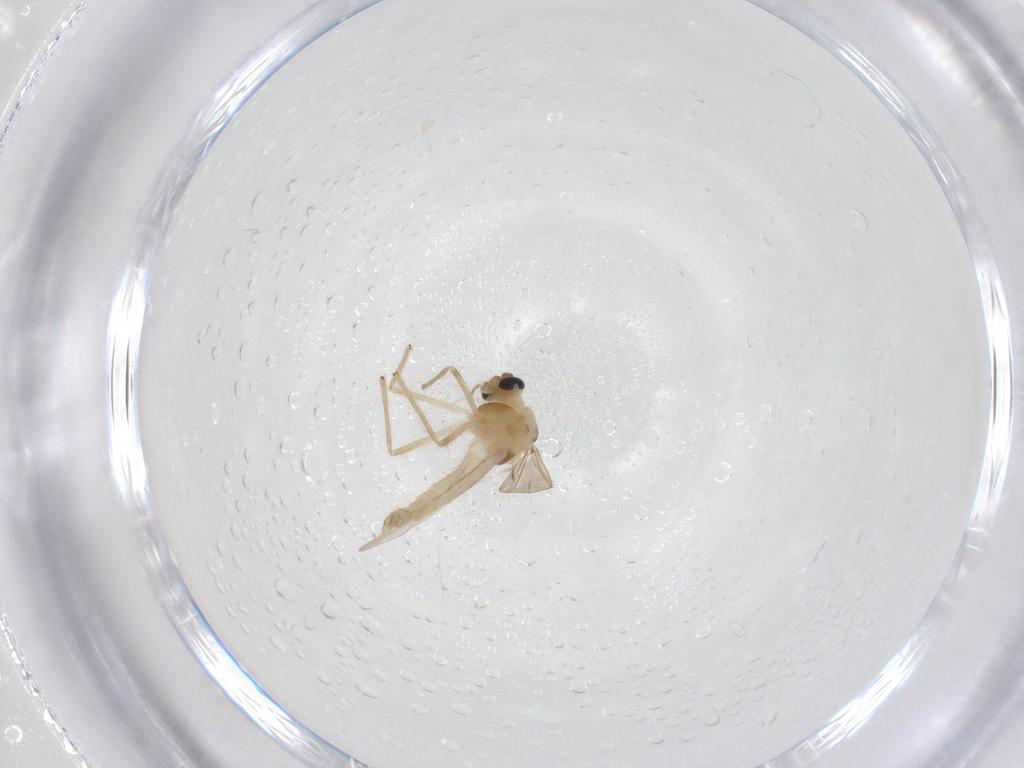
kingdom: Animalia
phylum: Arthropoda
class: Insecta
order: Diptera
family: Chironomidae
